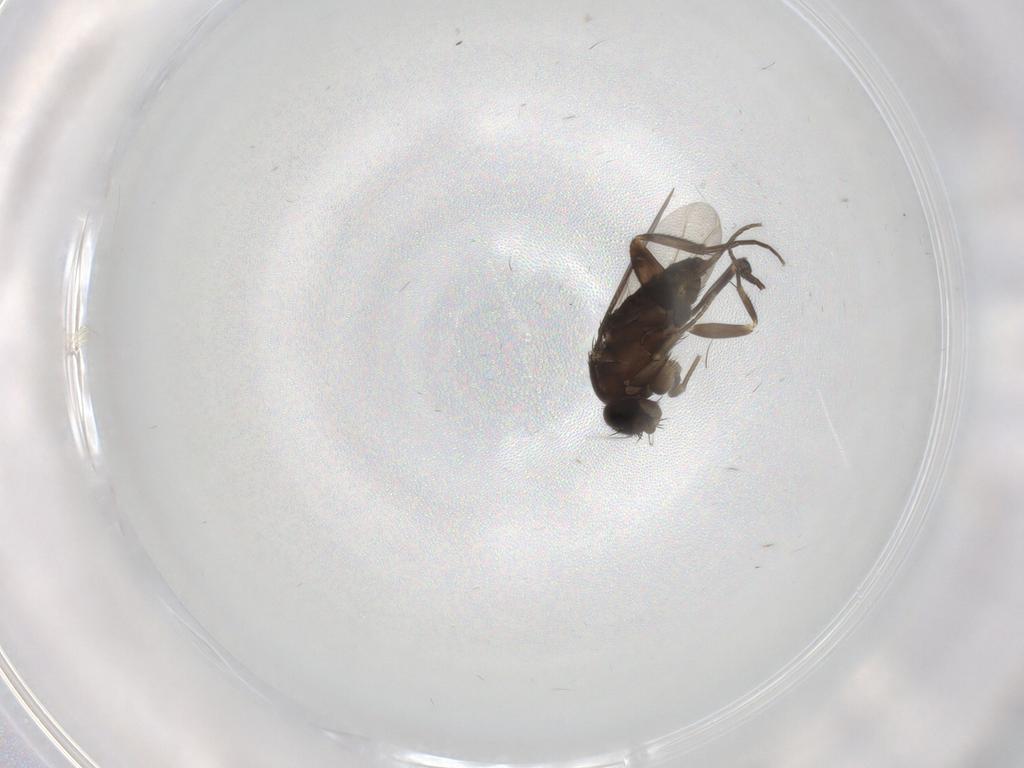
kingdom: Animalia
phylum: Arthropoda
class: Insecta
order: Diptera
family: Phoridae
